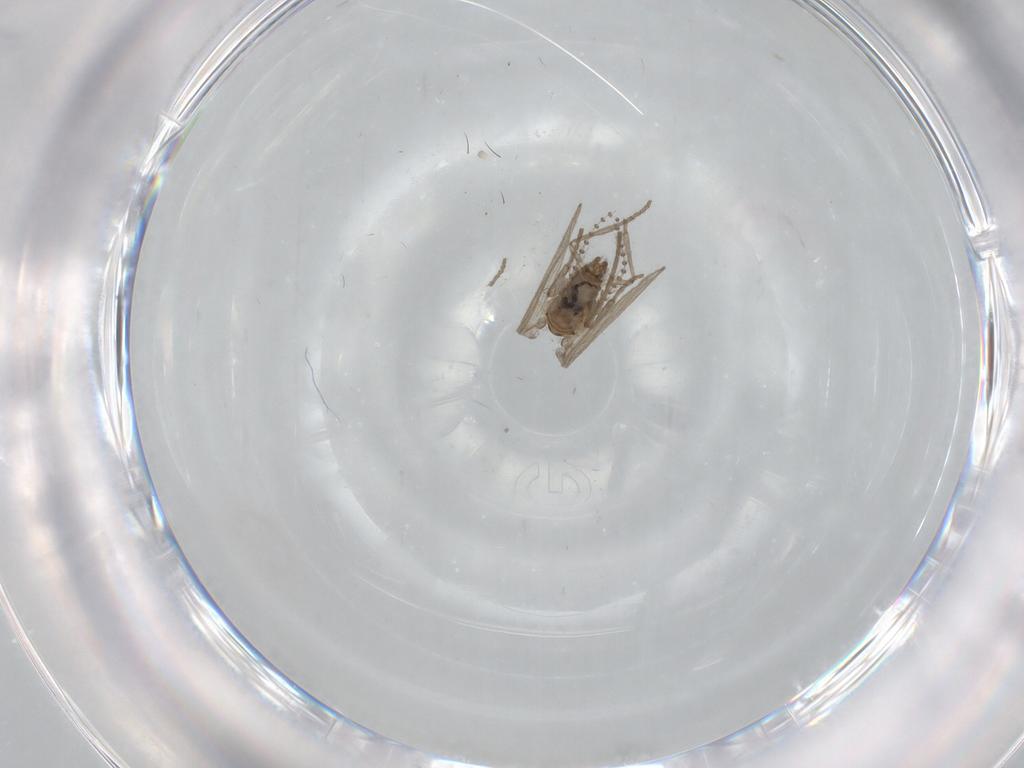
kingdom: Animalia
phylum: Arthropoda
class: Insecta
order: Diptera
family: Psychodidae
